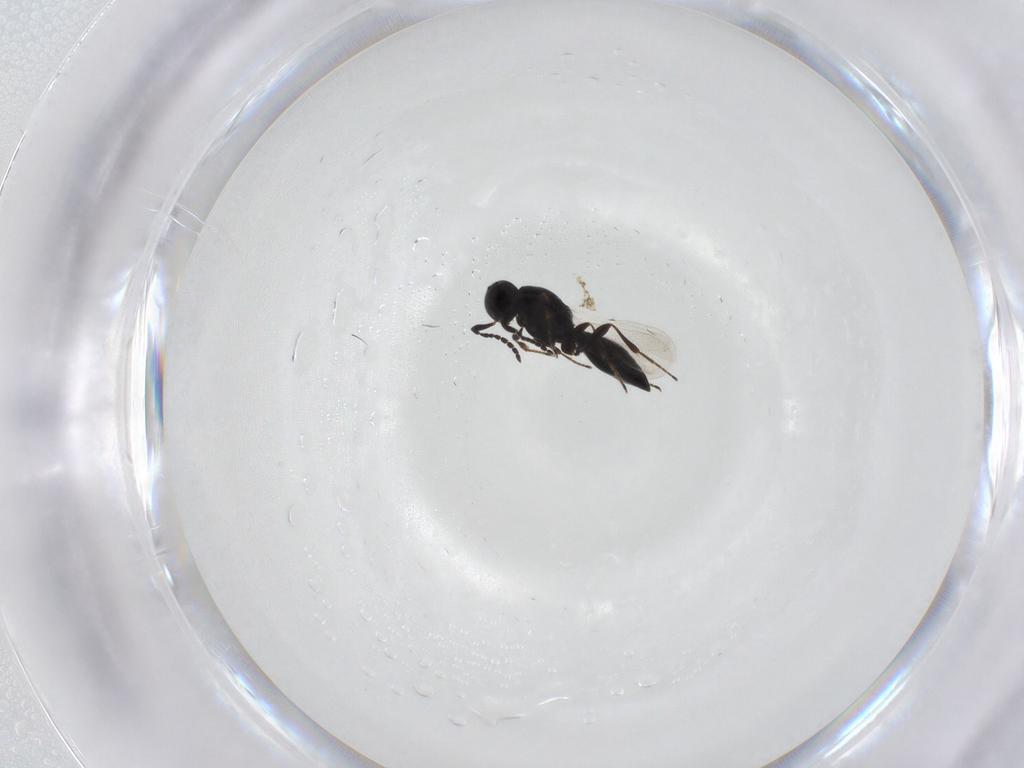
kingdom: Animalia
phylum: Arthropoda
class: Insecta
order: Hymenoptera
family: Platygastridae
